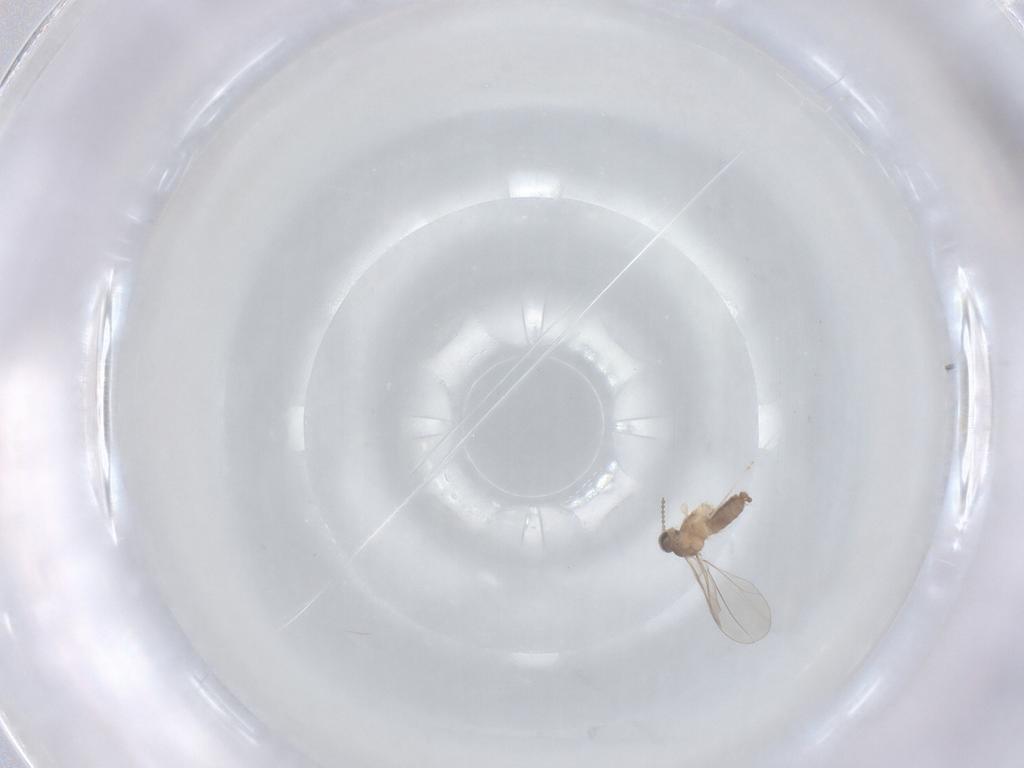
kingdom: Animalia
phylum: Arthropoda
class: Insecta
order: Diptera
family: Cecidomyiidae
